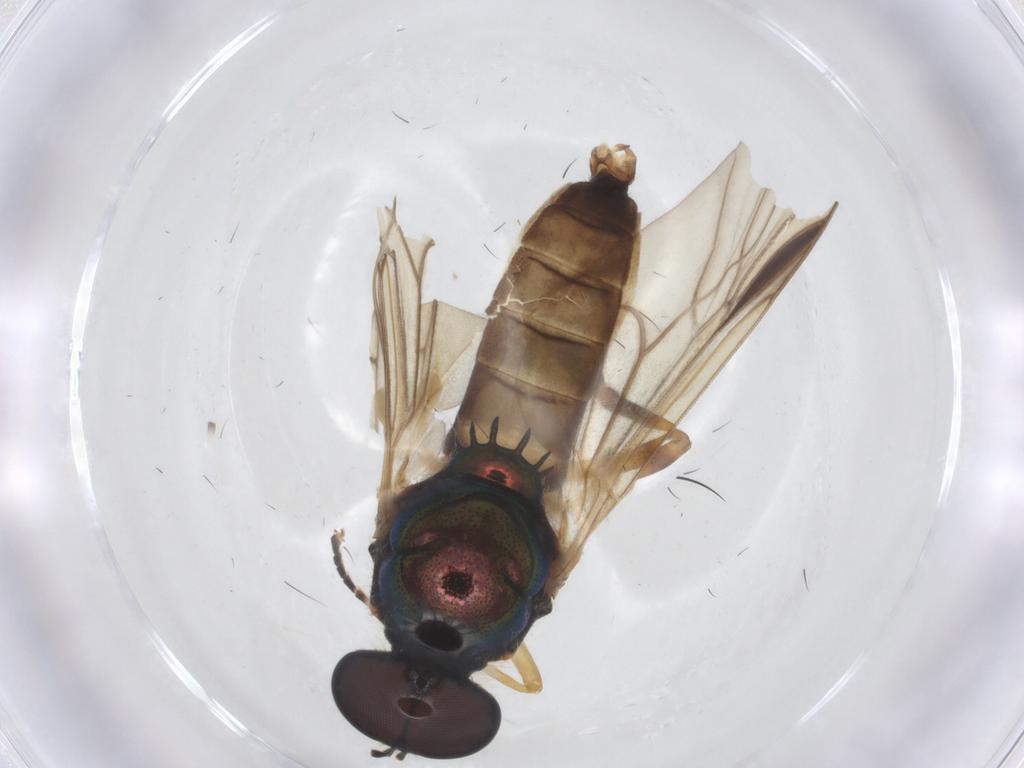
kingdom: Animalia
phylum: Arthropoda
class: Insecta
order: Diptera
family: Stratiomyidae
